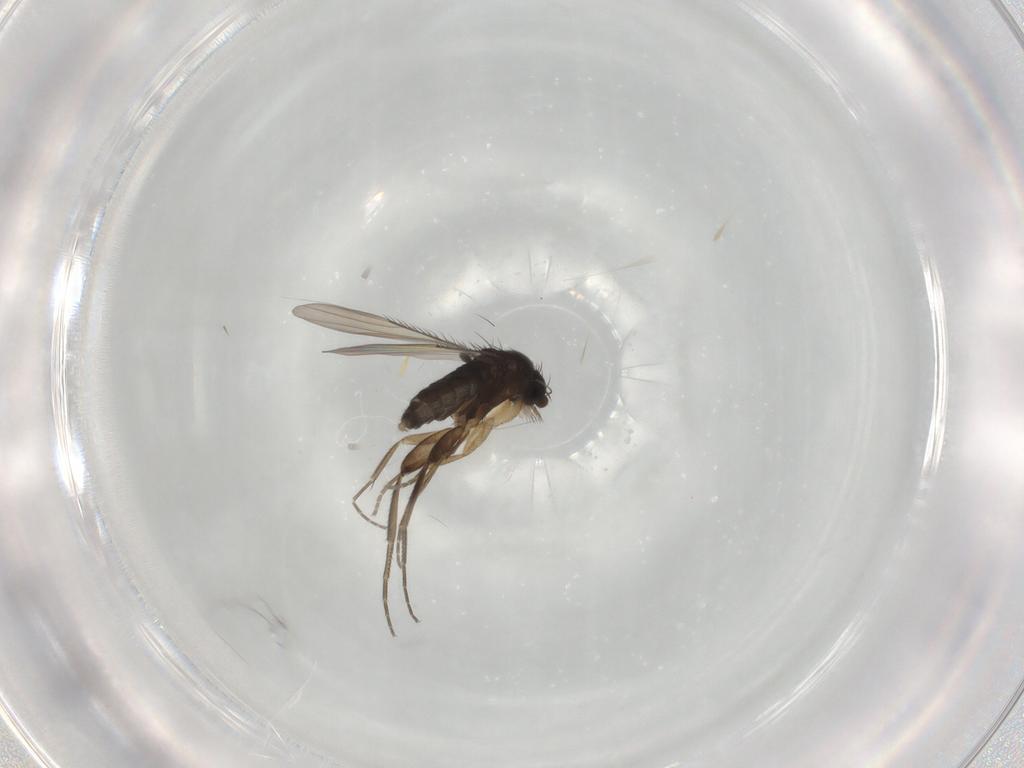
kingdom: Animalia
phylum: Arthropoda
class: Insecta
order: Diptera
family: Phoridae
